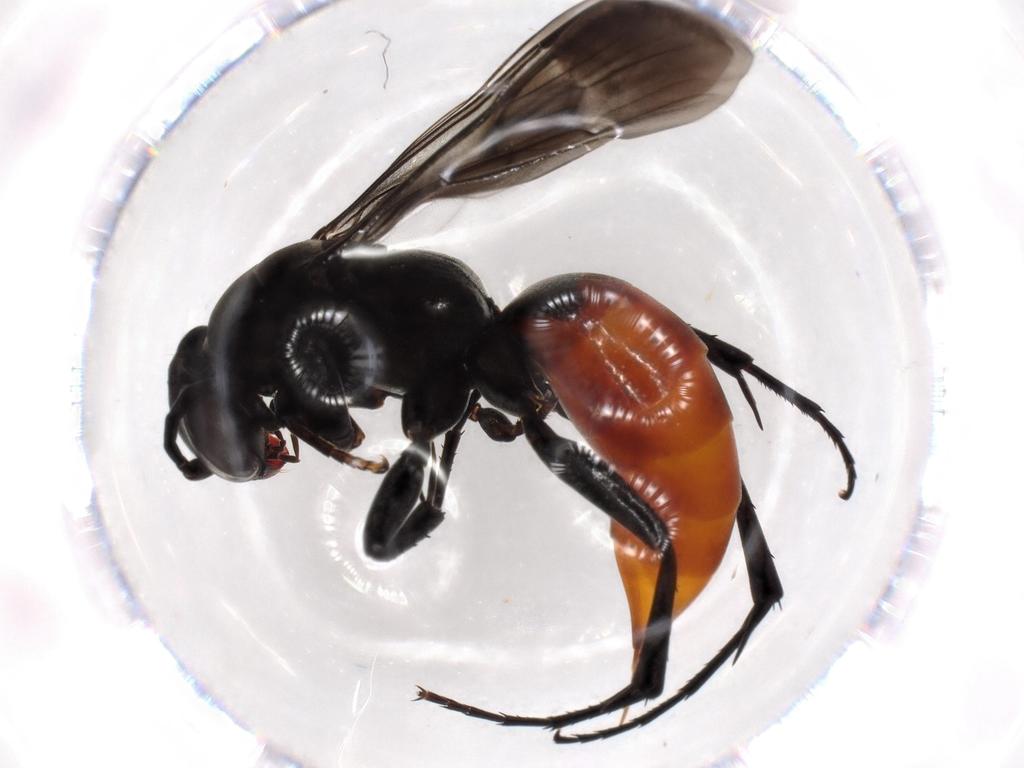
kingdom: Animalia
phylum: Arthropoda
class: Insecta
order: Hymenoptera
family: Pompilidae
